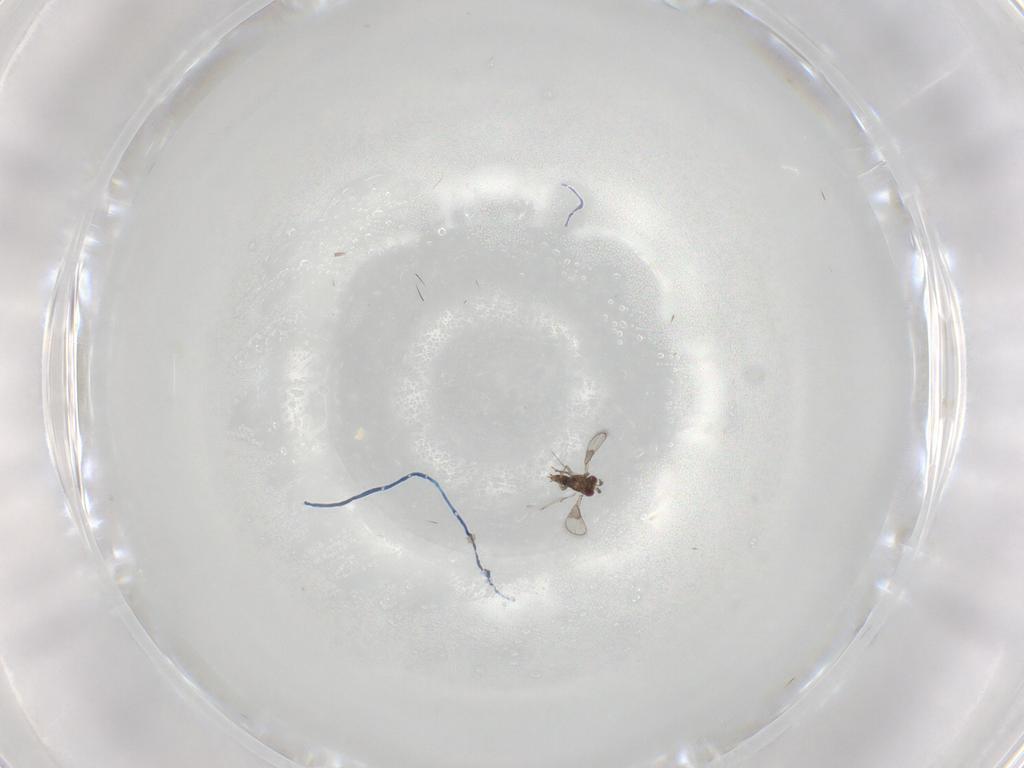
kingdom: Animalia
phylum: Arthropoda
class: Insecta
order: Hymenoptera
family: Trichogrammatidae
